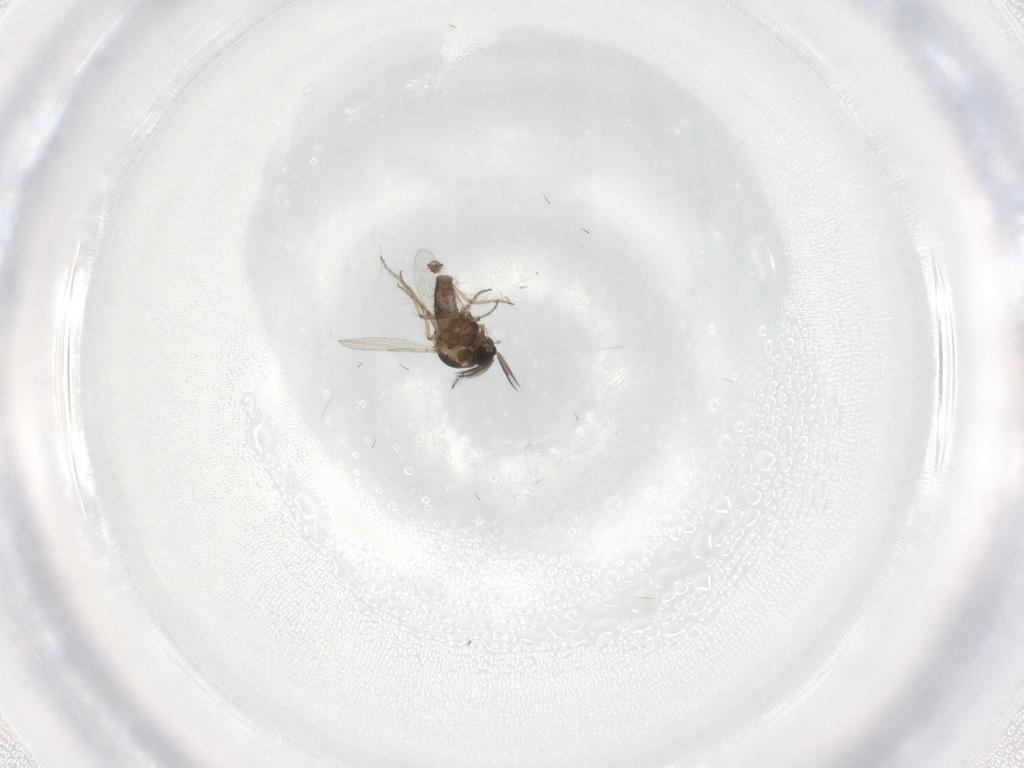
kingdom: Animalia
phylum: Arthropoda
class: Insecta
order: Diptera
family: Ceratopogonidae
